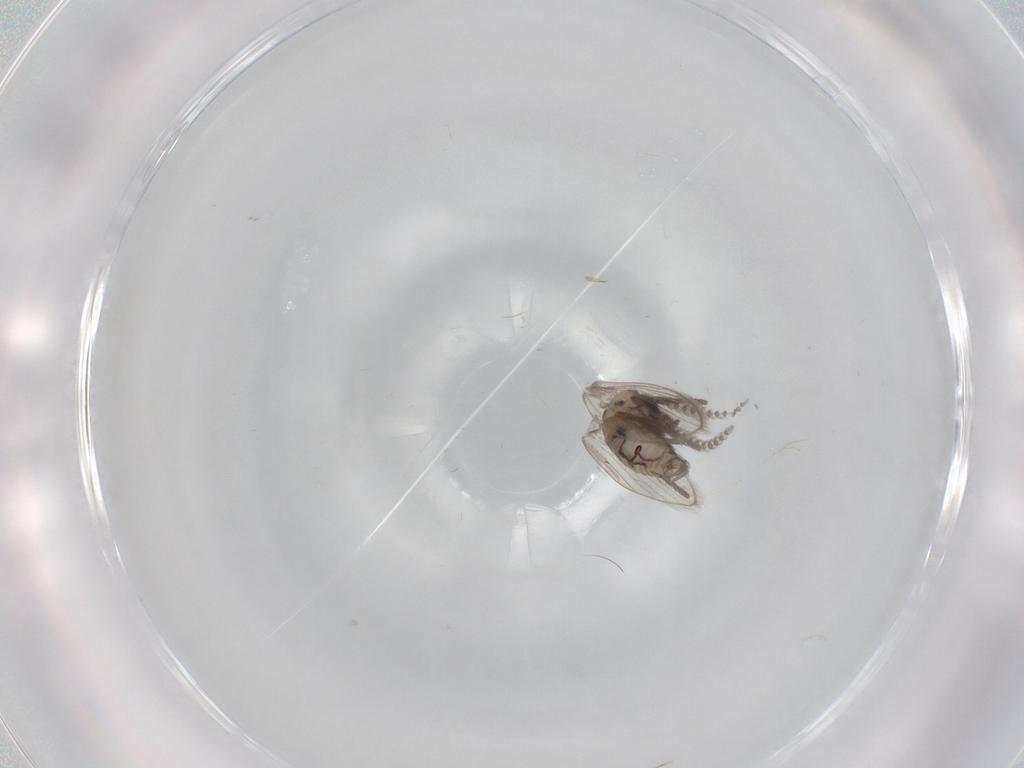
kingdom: Animalia
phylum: Arthropoda
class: Insecta
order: Diptera
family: Psychodidae
